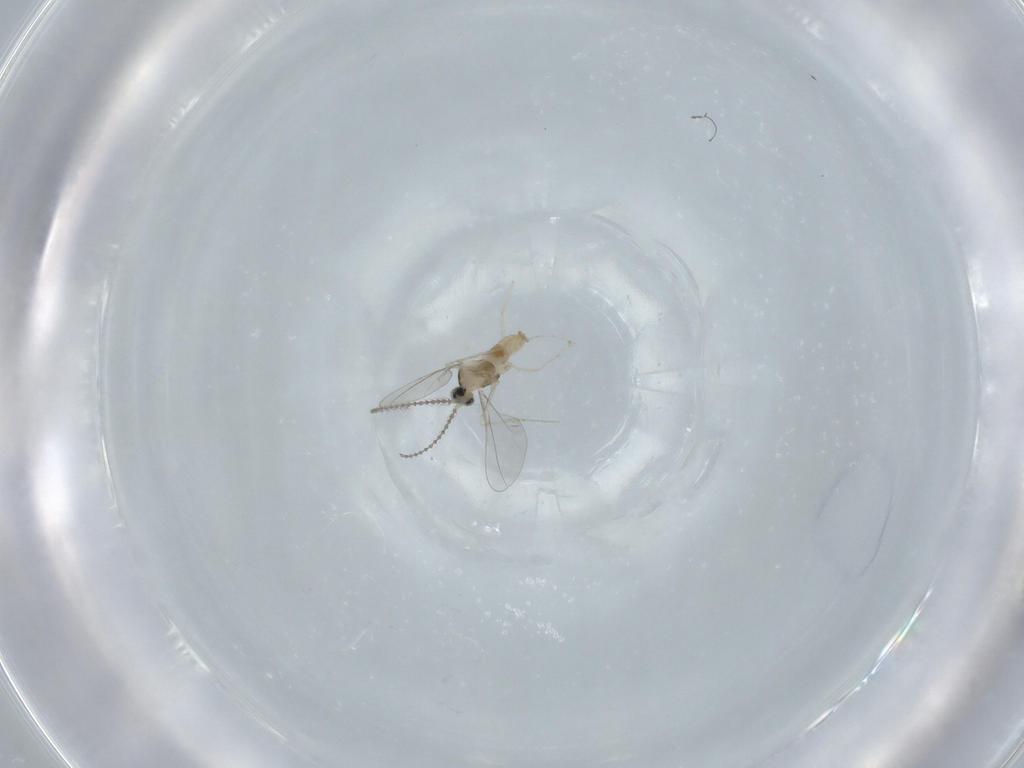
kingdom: Animalia
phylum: Arthropoda
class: Insecta
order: Diptera
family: Cecidomyiidae
